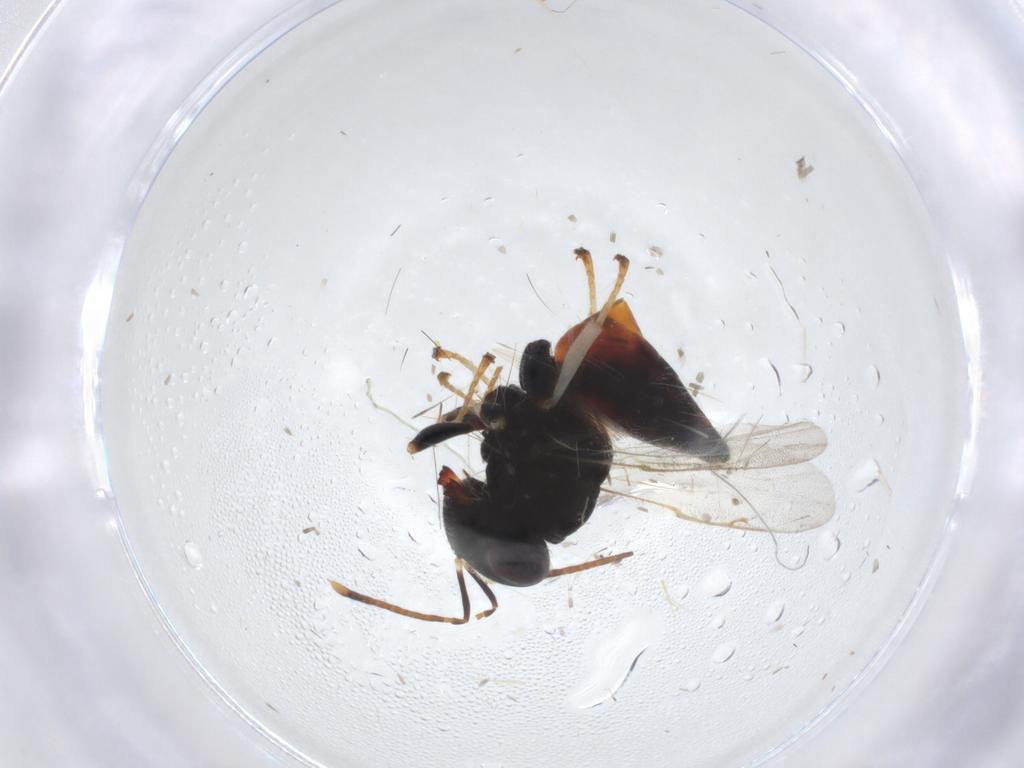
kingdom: Animalia
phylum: Arthropoda
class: Insecta
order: Hymenoptera
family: Pteromalidae
